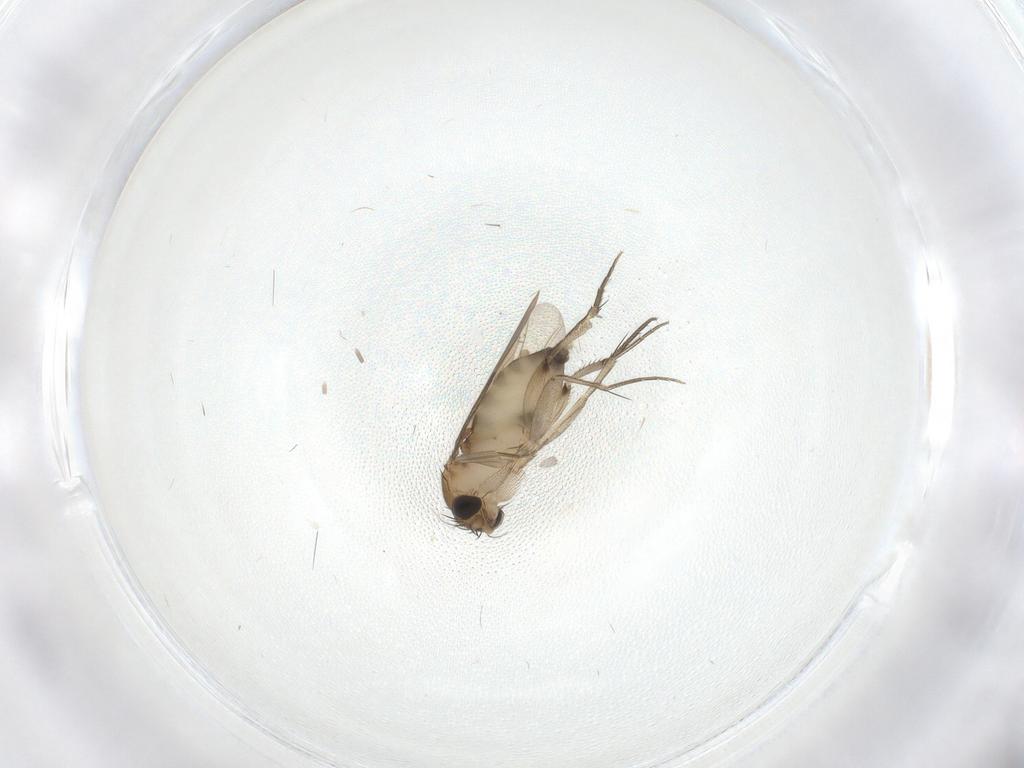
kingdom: Animalia
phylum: Arthropoda
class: Insecta
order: Diptera
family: Phoridae
